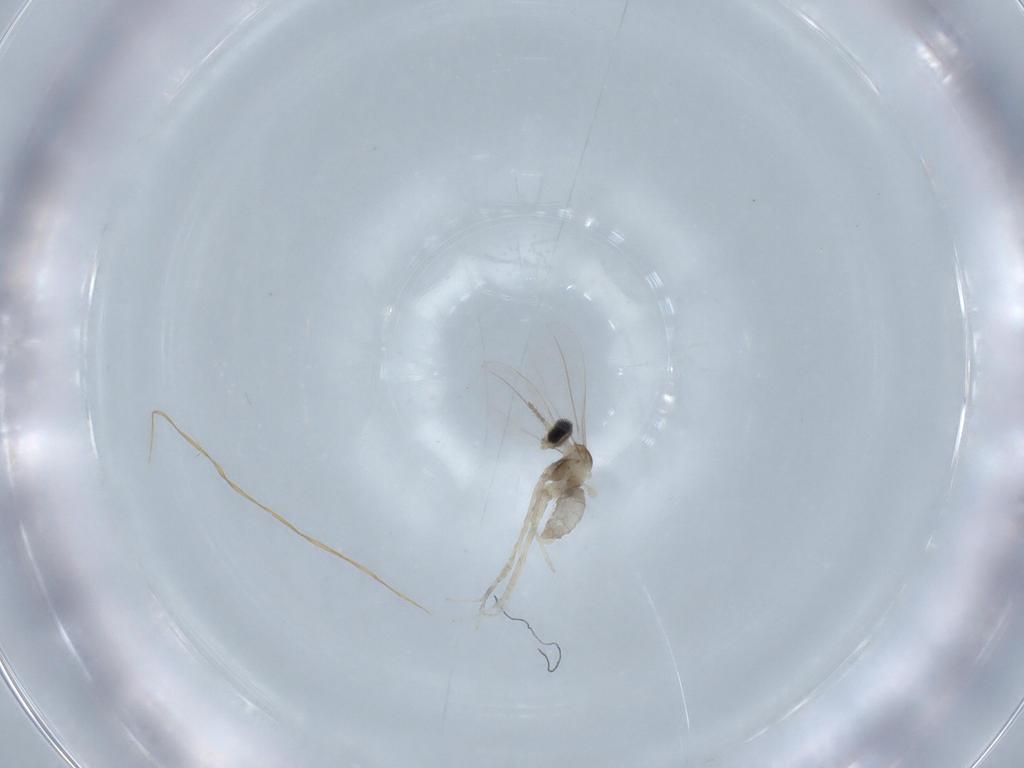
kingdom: Animalia
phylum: Arthropoda
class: Insecta
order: Diptera
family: Cecidomyiidae
